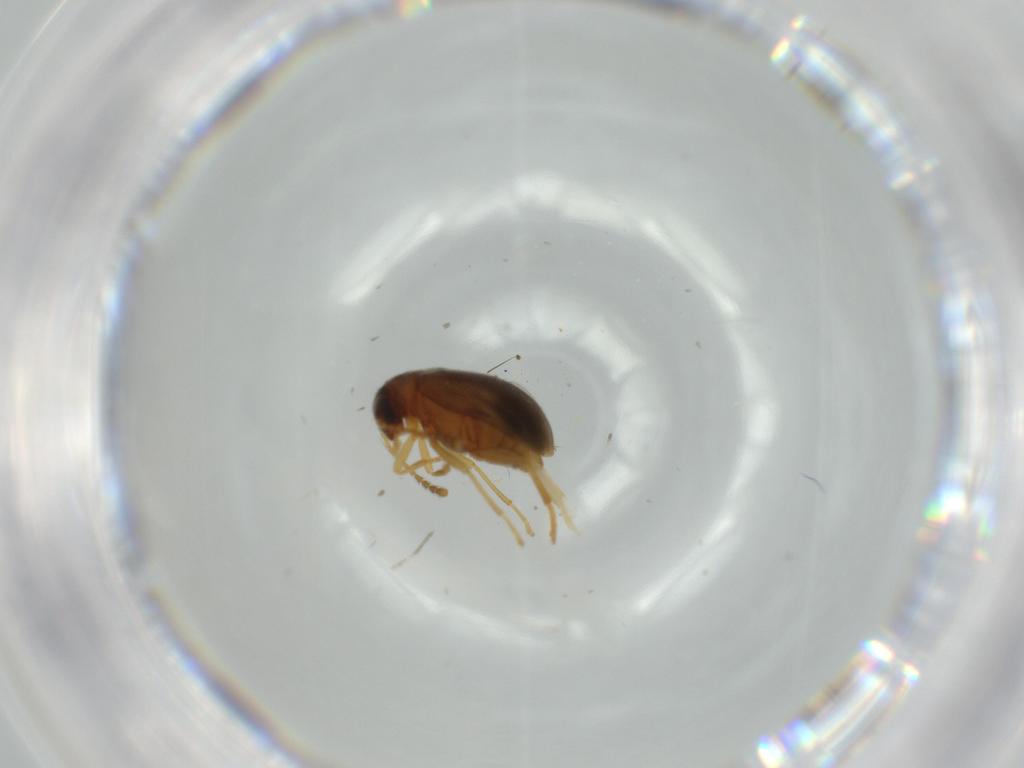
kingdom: Animalia
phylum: Arthropoda
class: Insecta
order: Coleoptera
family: Aderidae
